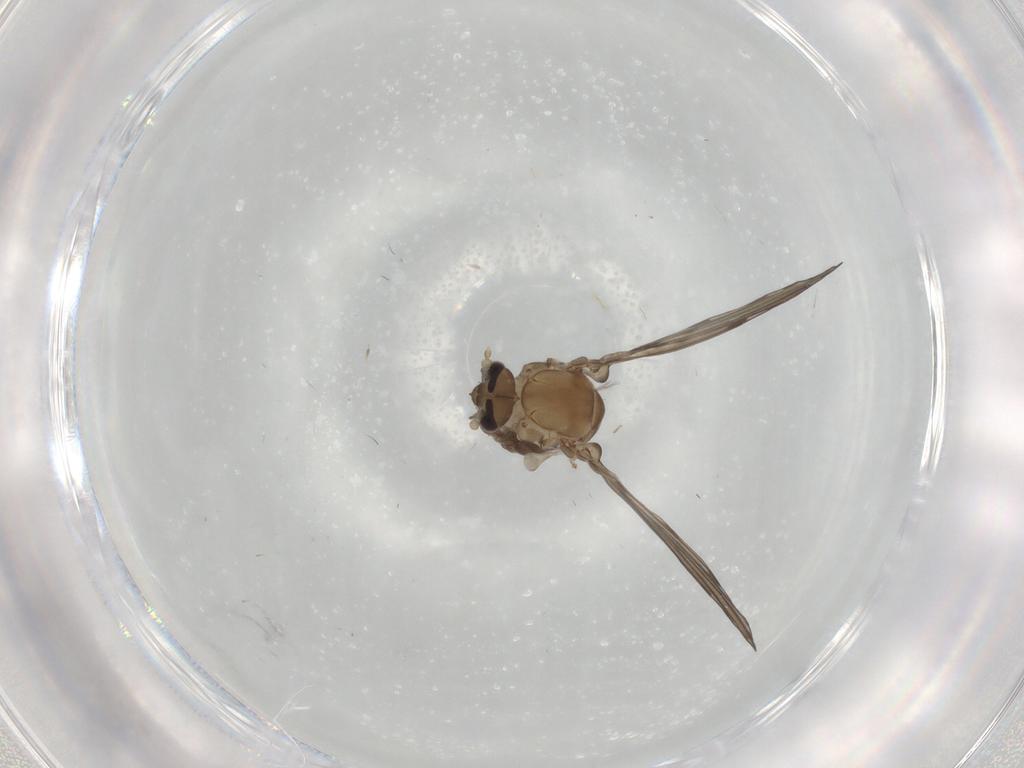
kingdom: Animalia
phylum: Arthropoda
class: Insecta
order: Diptera
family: Psychodidae
